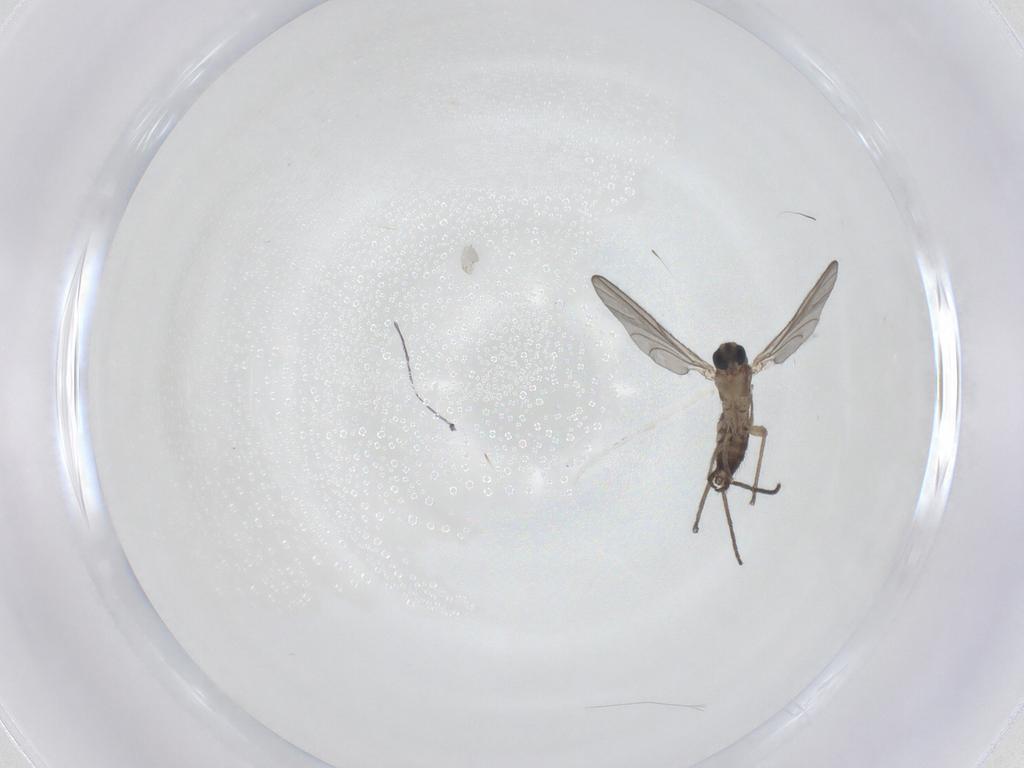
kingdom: Animalia
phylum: Arthropoda
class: Insecta
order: Diptera
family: Sciaridae
